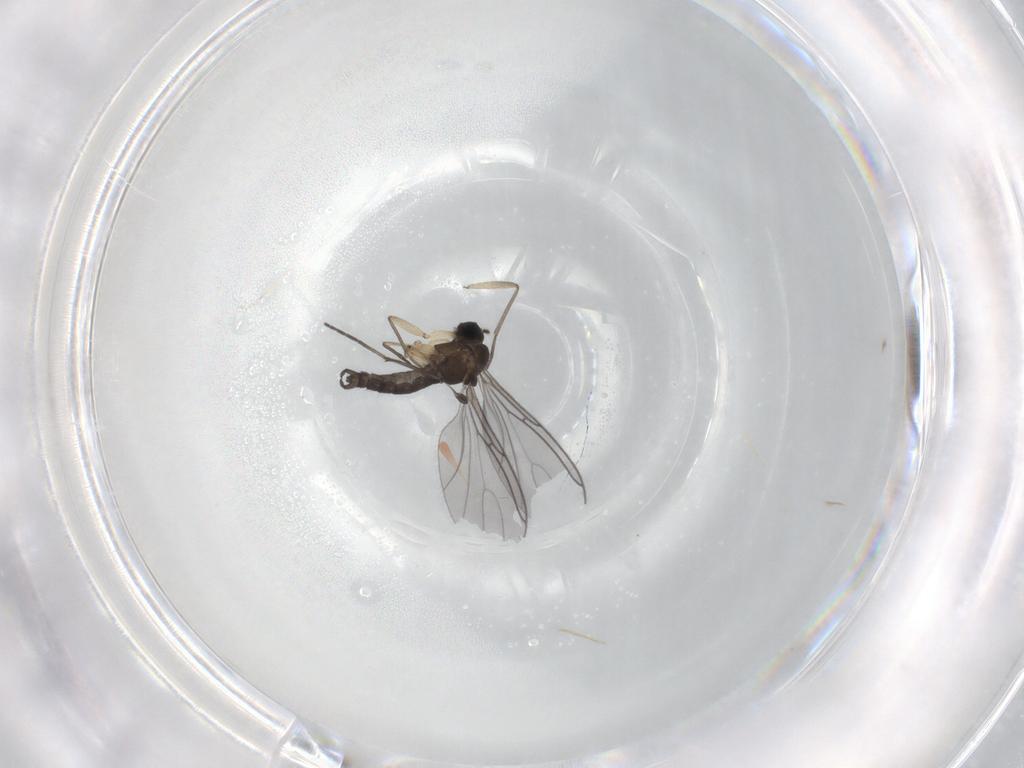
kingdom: Animalia
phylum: Arthropoda
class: Insecta
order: Diptera
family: Sciaridae
